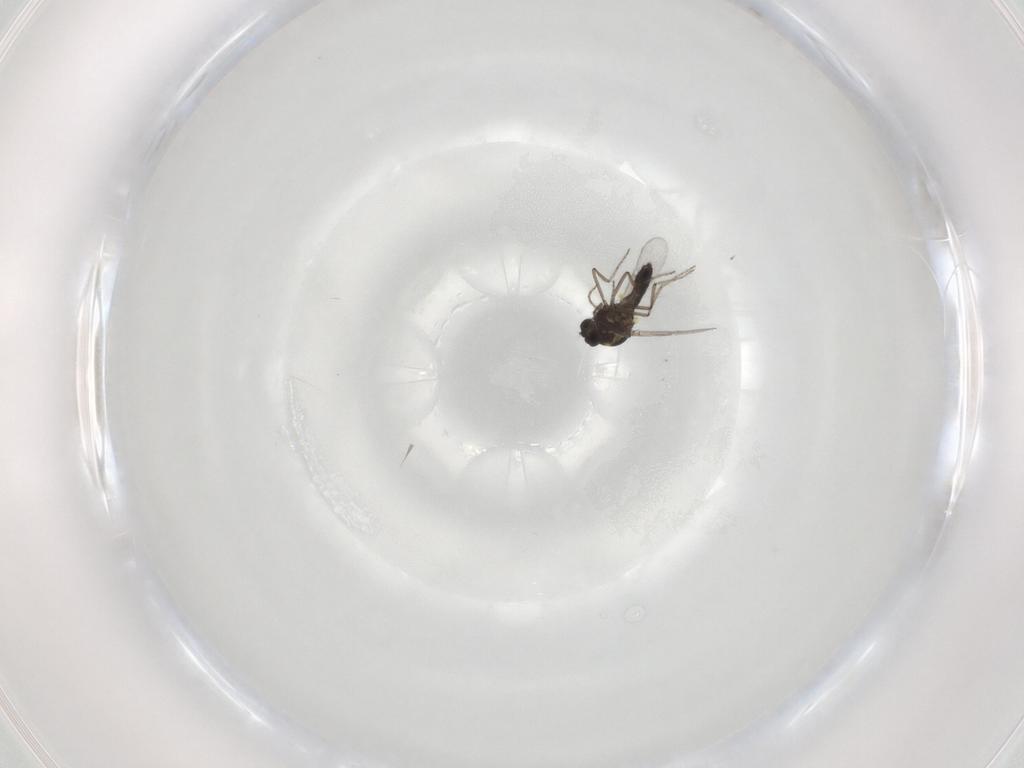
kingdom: Animalia
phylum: Arthropoda
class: Insecta
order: Diptera
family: Ceratopogonidae
